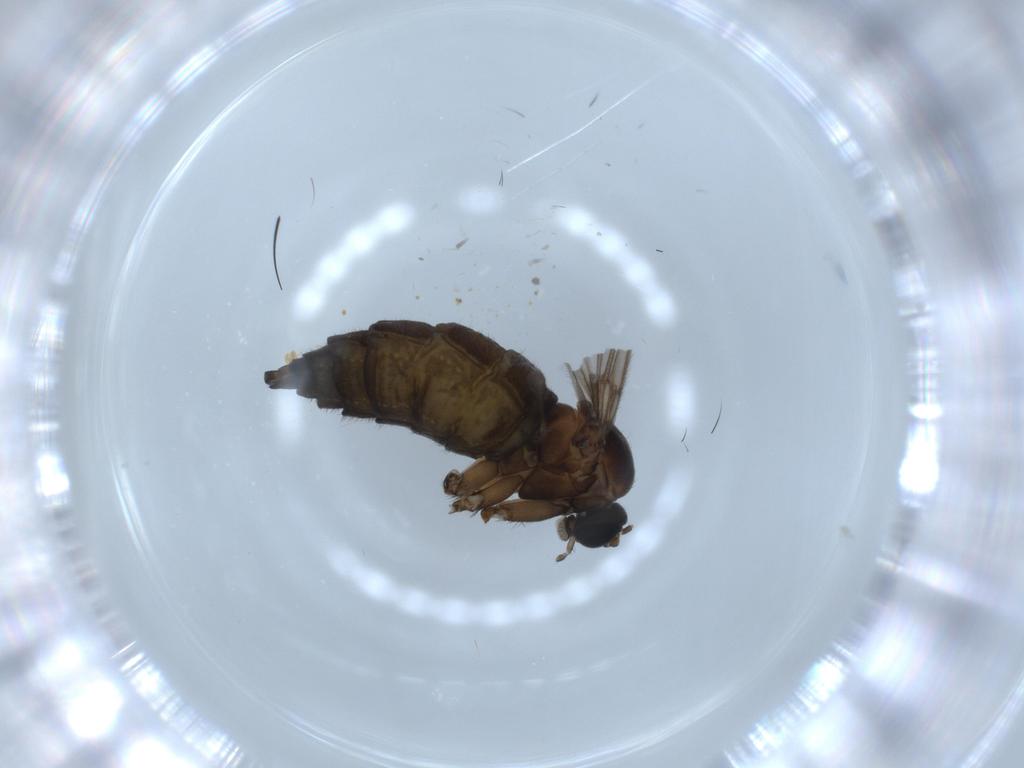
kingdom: Animalia
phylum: Arthropoda
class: Insecta
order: Diptera
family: Sciaridae
